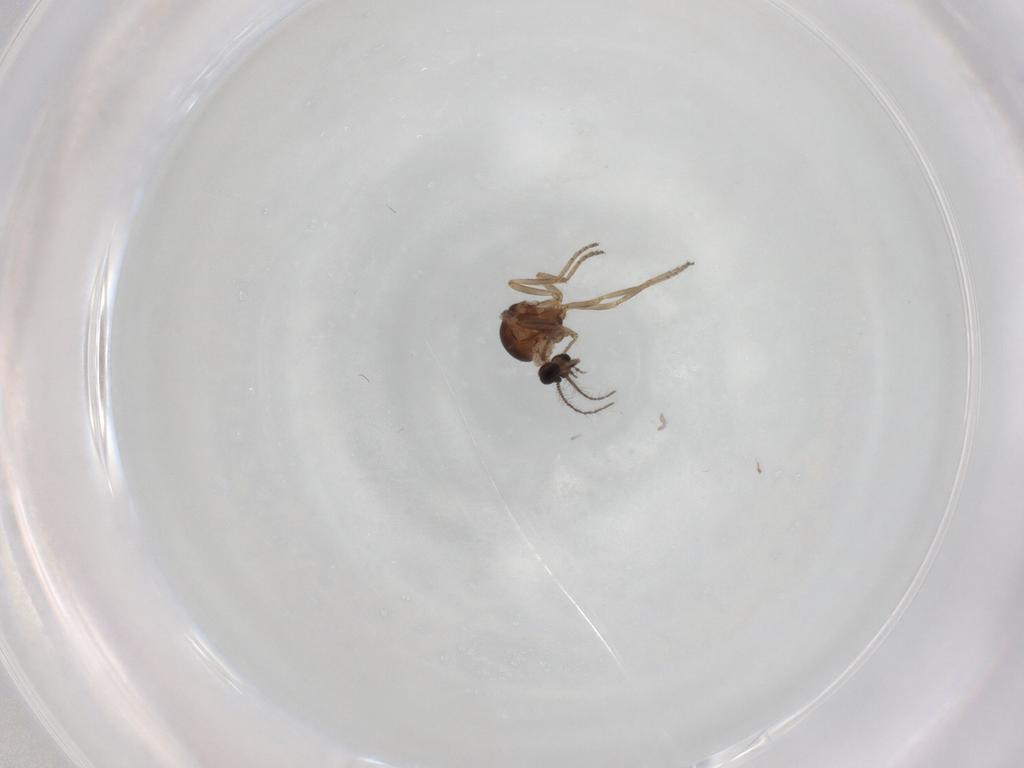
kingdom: Animalia
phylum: Arthropoda
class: Insecta
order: Diptera
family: Ceratopogonidae
